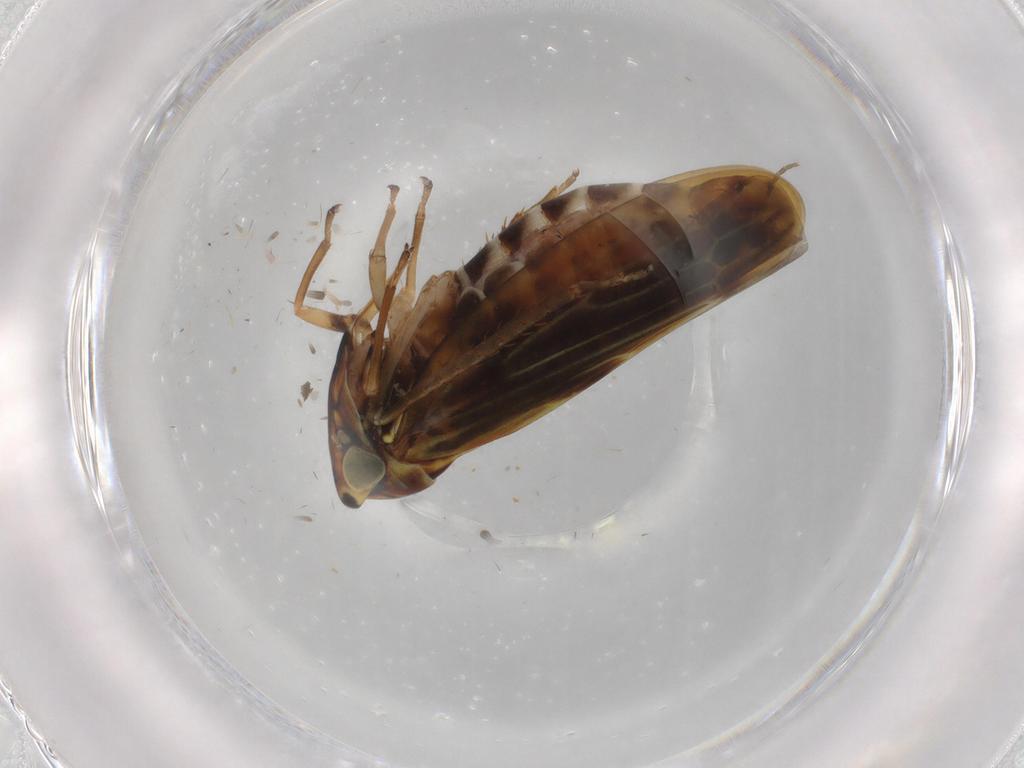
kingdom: Animalia
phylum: Arthropoda
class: Insecta
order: Hemiptera
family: Cicadellidae
